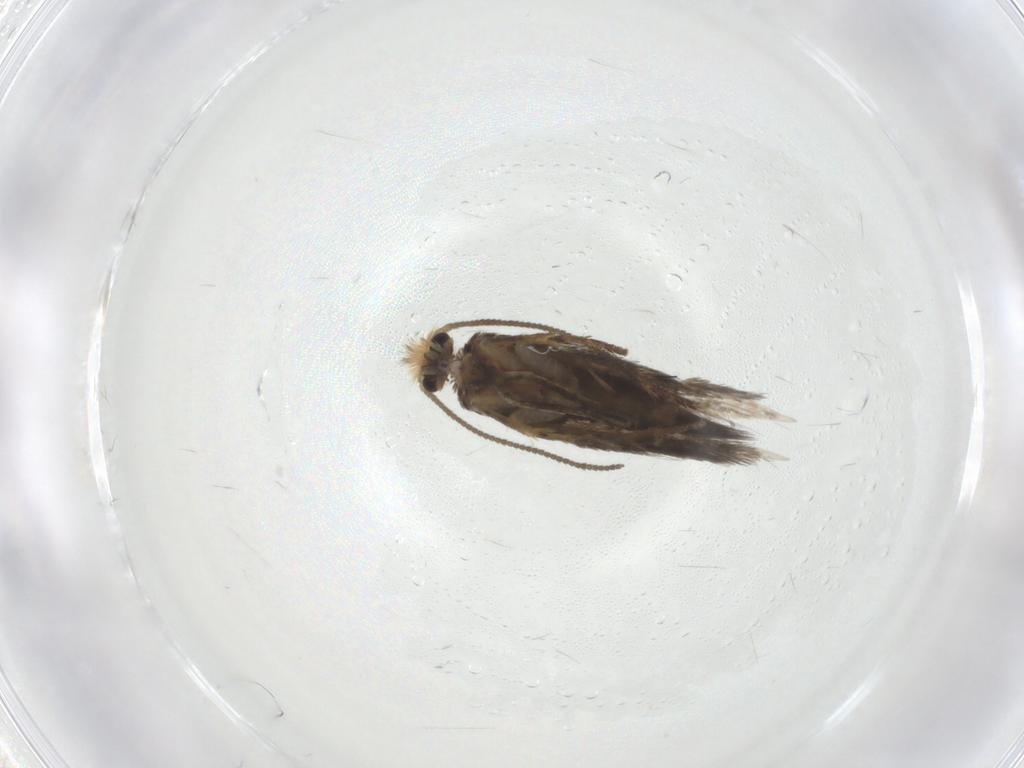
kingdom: Animalia
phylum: Arthropoda
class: Insecta
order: Lepidoptera
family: Nepticulidae
